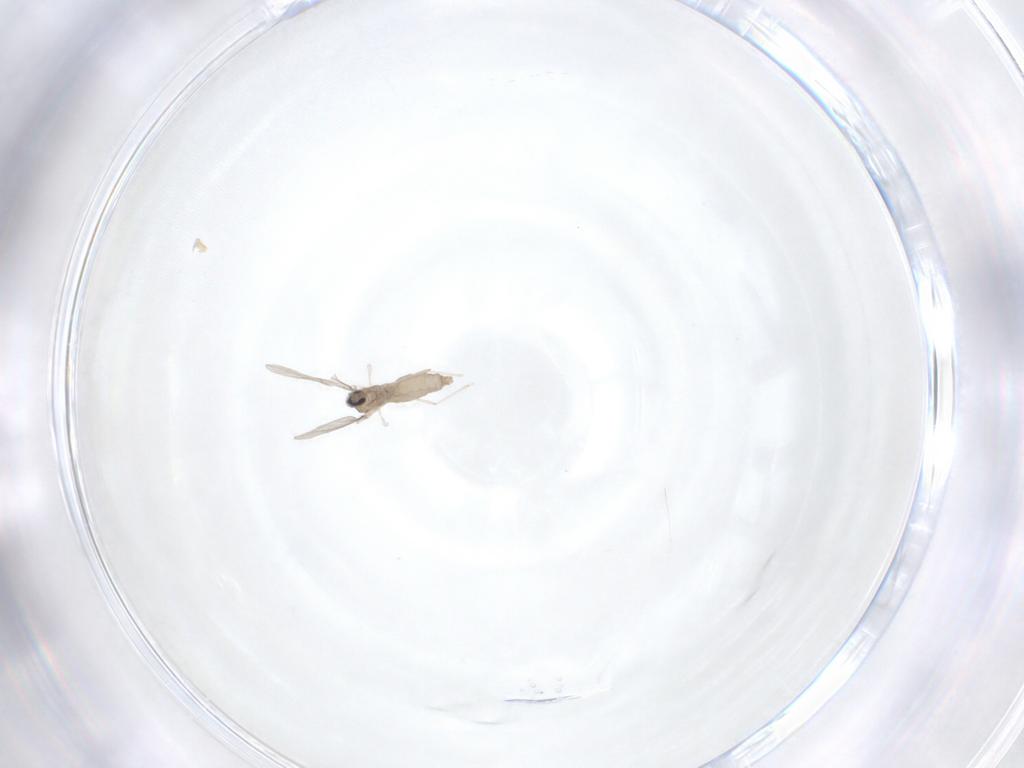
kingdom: Animalia
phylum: Arthropoda
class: Insecta
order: Diptera
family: Cecidomyiidae
